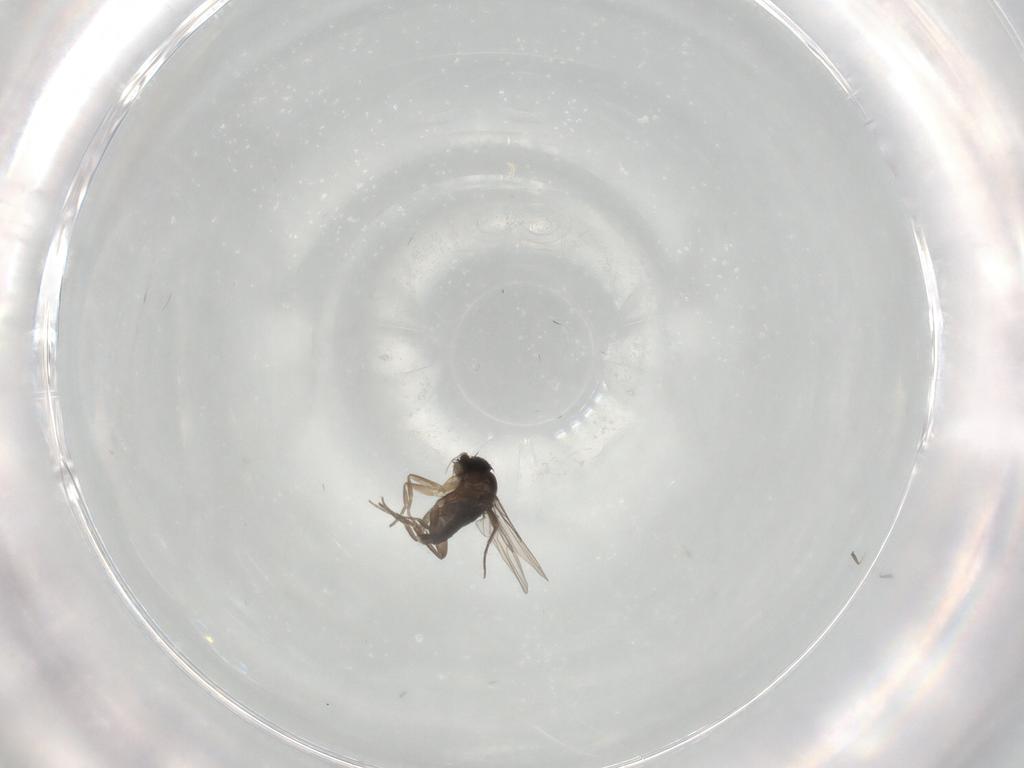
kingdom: Animalia
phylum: Arthropoda
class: Insecta
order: Diptera
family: Phoridae
